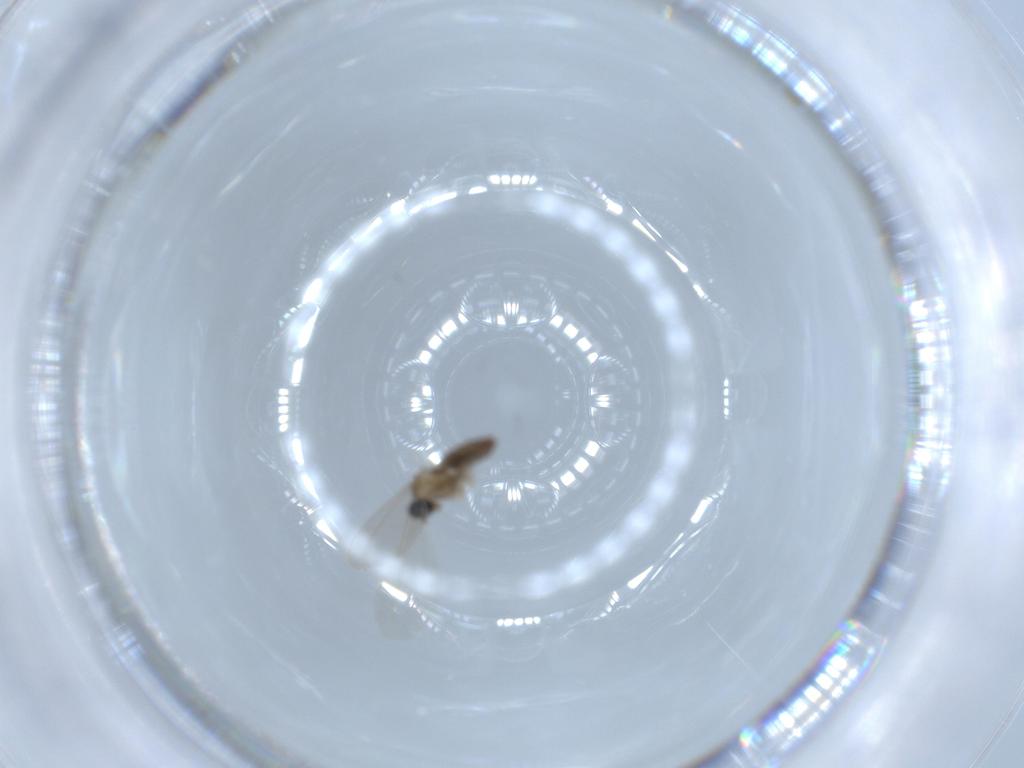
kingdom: Animalia
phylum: Arthropoda
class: Insecta
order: Diptera
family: Cecidomyiidae
